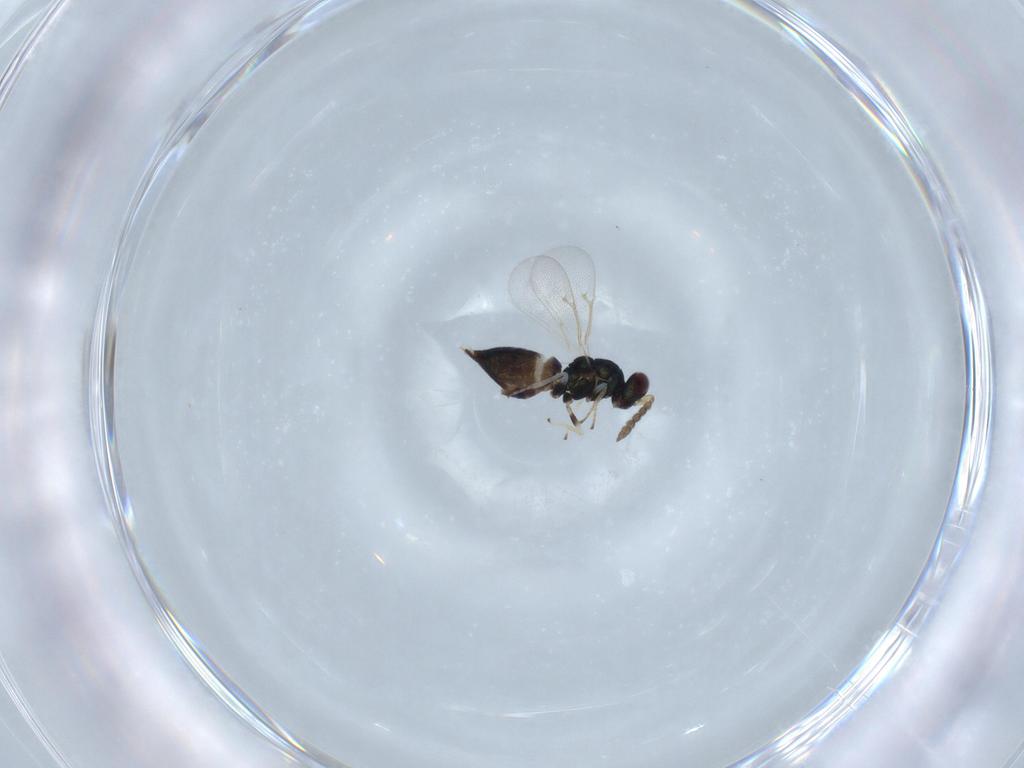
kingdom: Animalia
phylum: Arthropoda
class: Insecta
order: Hymenoptera
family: Eulophidae
